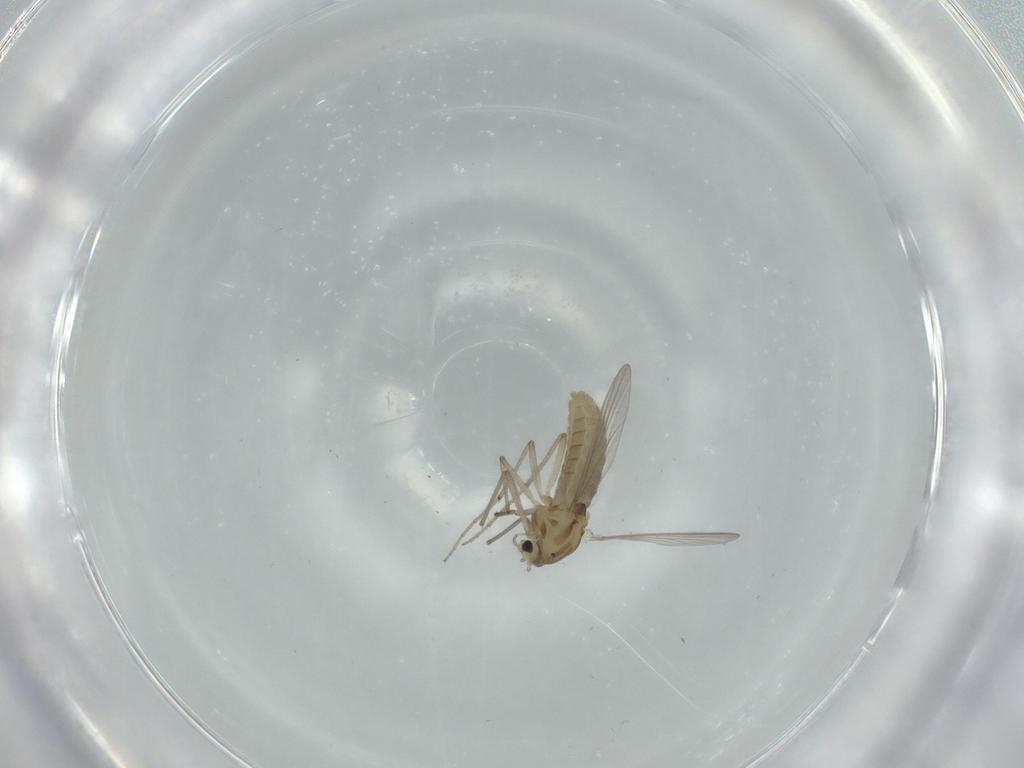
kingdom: Animalia
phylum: Arthropoda
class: Insecta
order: Diptera
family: Chironomidae
